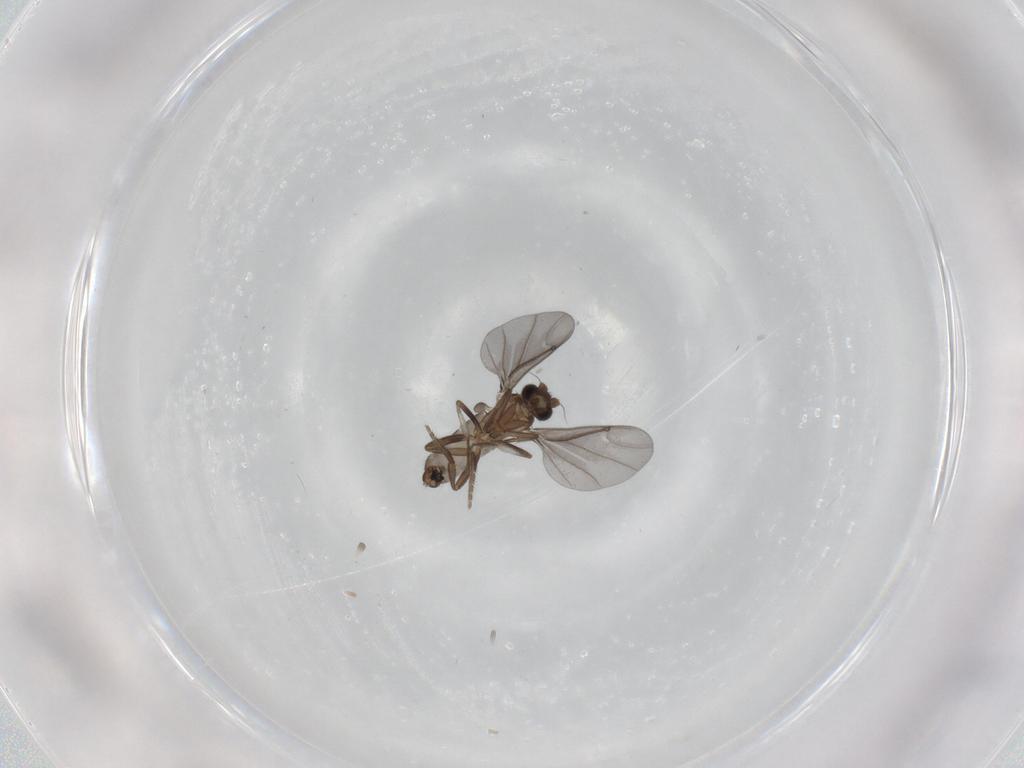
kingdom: Animalia
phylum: Arthropoda
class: Insecta
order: Diptera
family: Phoridae
